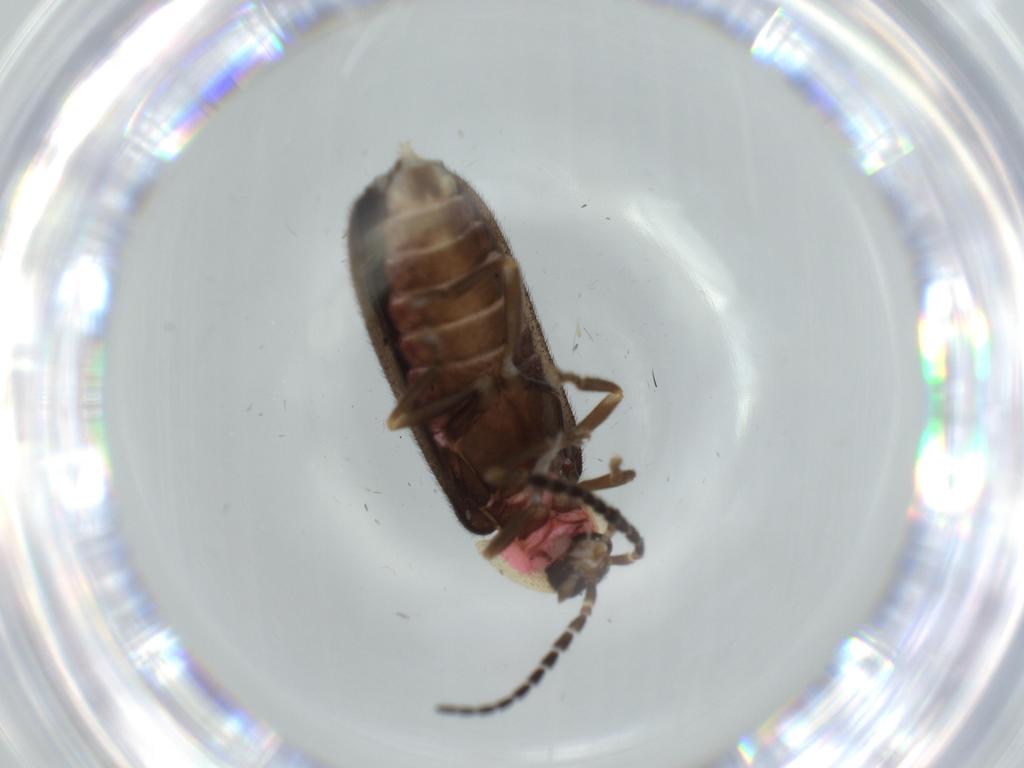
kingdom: Animalia
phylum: Arthropoda
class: Insecta
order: Coleoptera
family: Lampyridae
